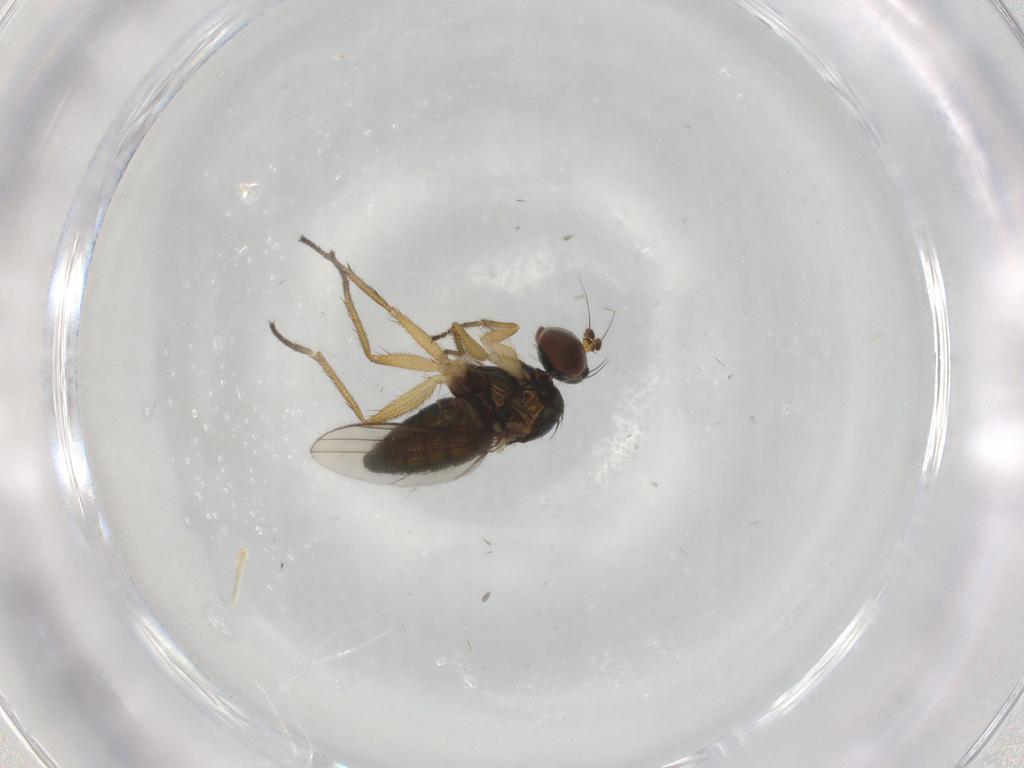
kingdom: Animalia
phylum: Arthropoda
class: Insecta
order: Diptera
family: Dolichopodidae
